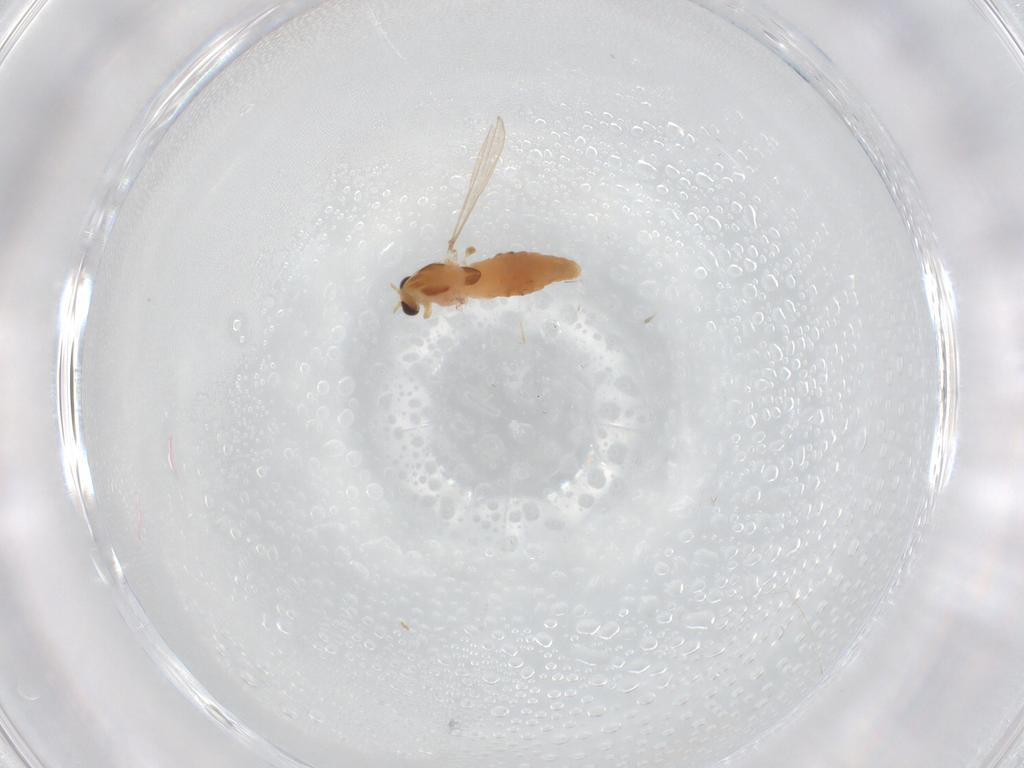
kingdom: Animalia
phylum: Arthropoda
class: Insecta
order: Diptera
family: Chironomidae
